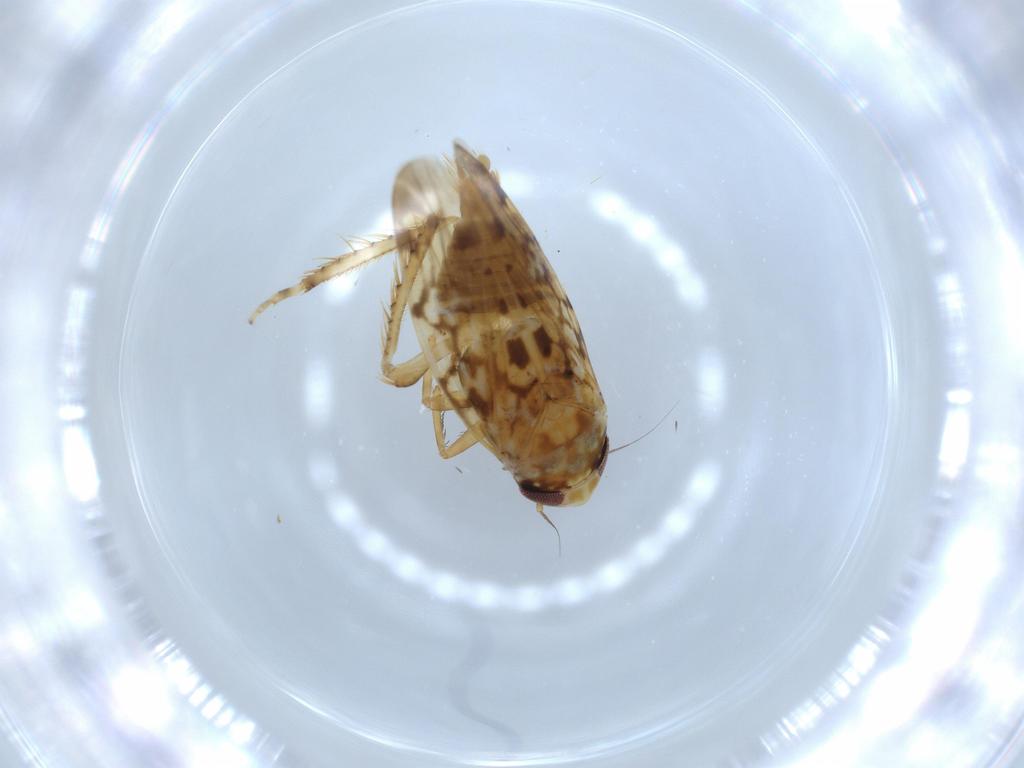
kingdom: Animalia
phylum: Arthropoda
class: Insecta
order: Hemiptera
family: Cicadellidae
